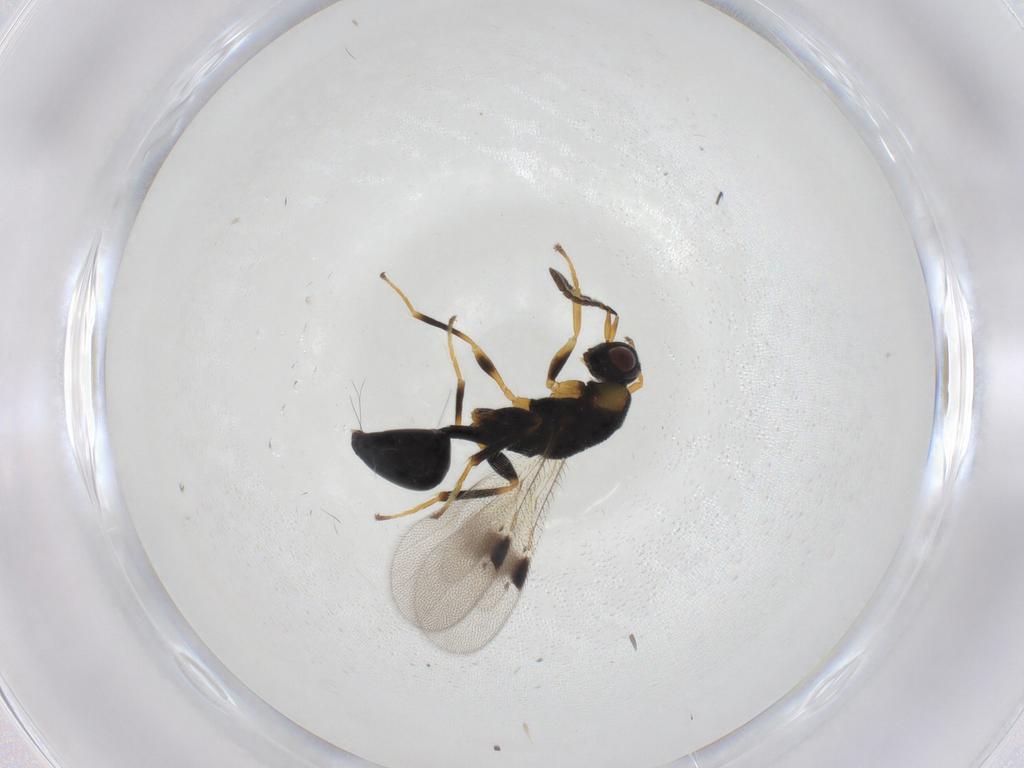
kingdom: Animalia
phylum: Arthropoda
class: Insecta
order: Hymenoptera
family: Eurytomidae
